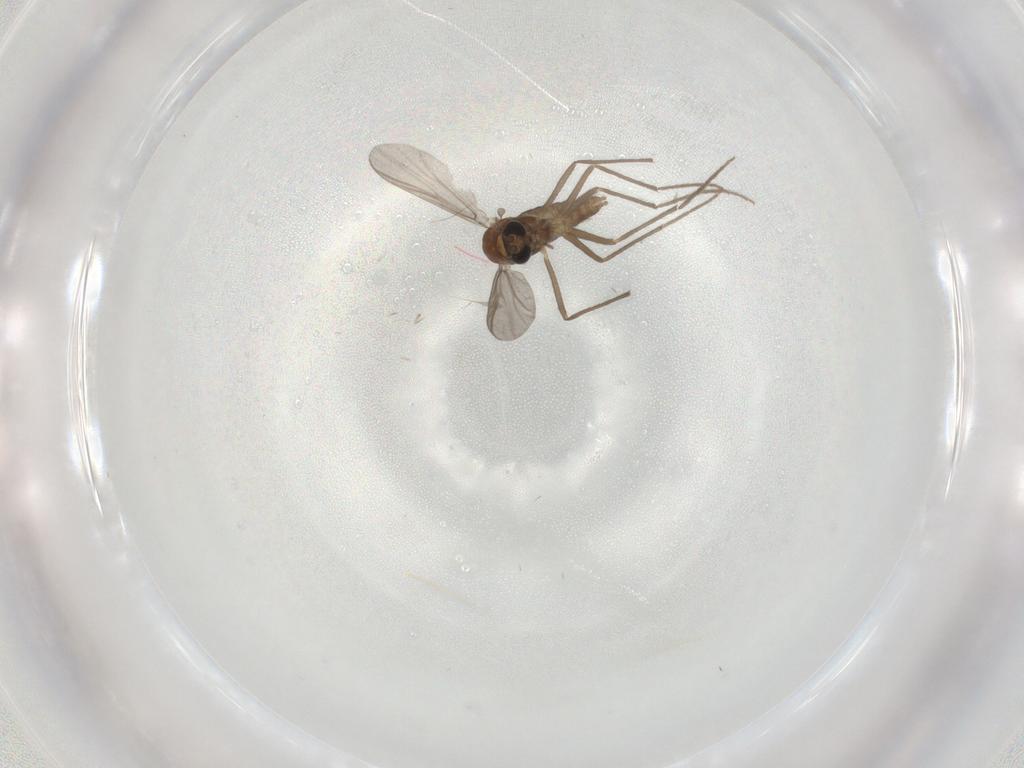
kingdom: Animalia
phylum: Arthropoda
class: Insecta
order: Diptera
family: Chironomidae
